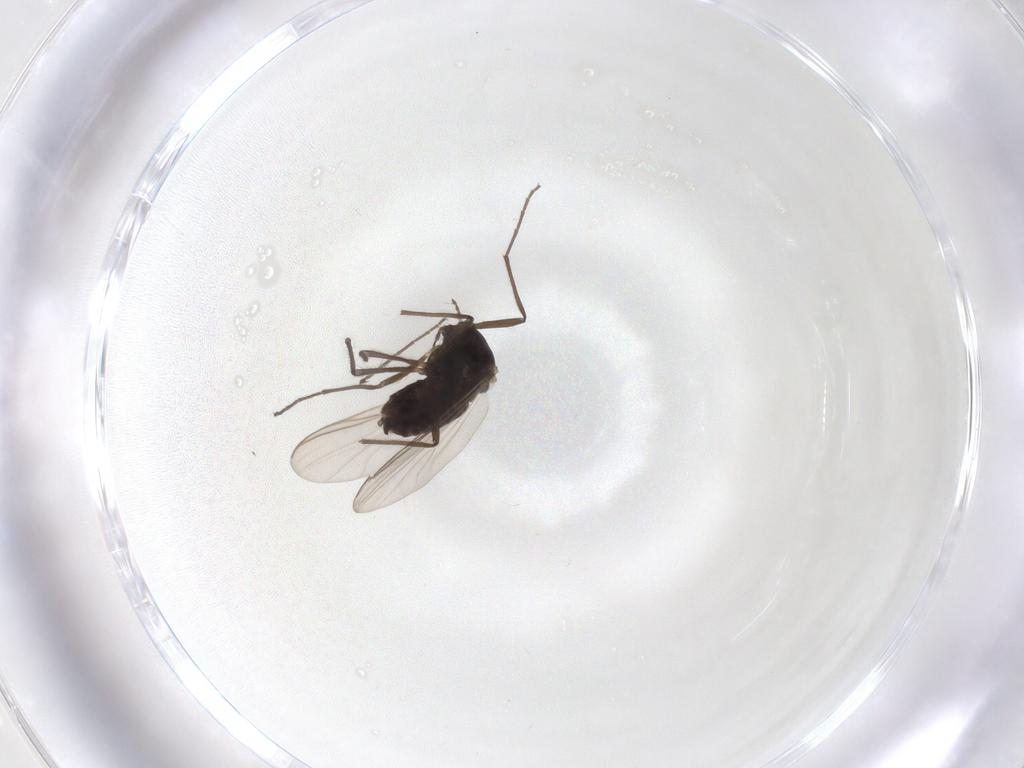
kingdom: Animalia
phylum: Arthropoda
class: Insecta
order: Diptera
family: Chironomidae
